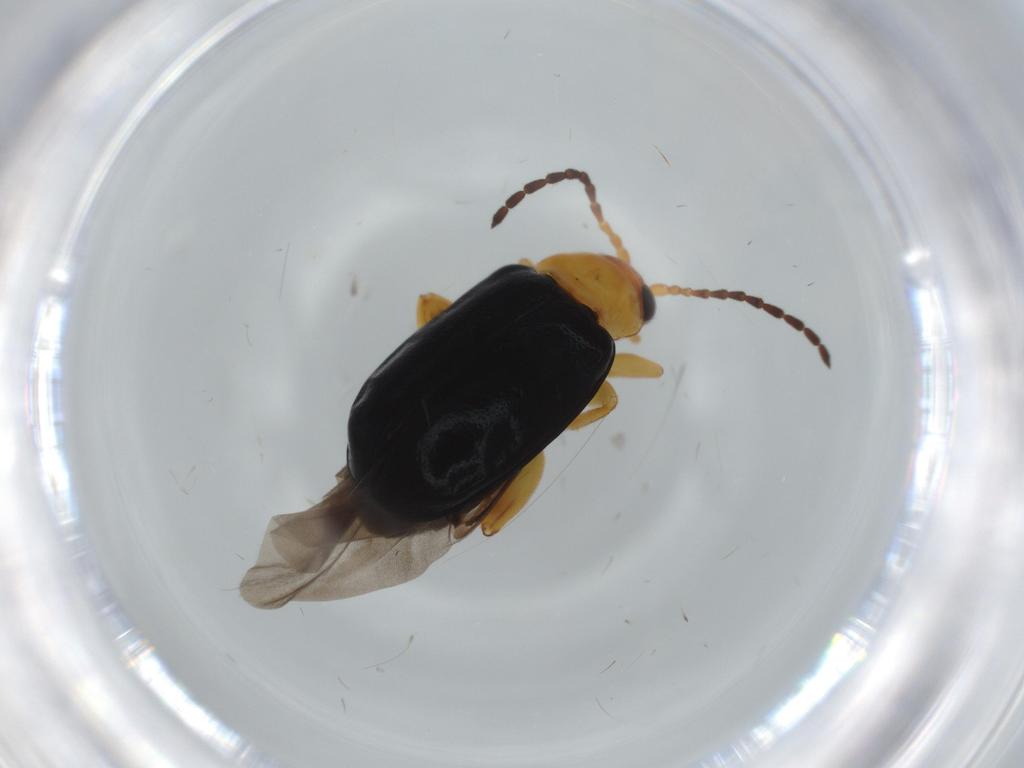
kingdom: Animalia
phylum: Arthropoda
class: Insecta
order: Coleoptera
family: Chrysomelidae
